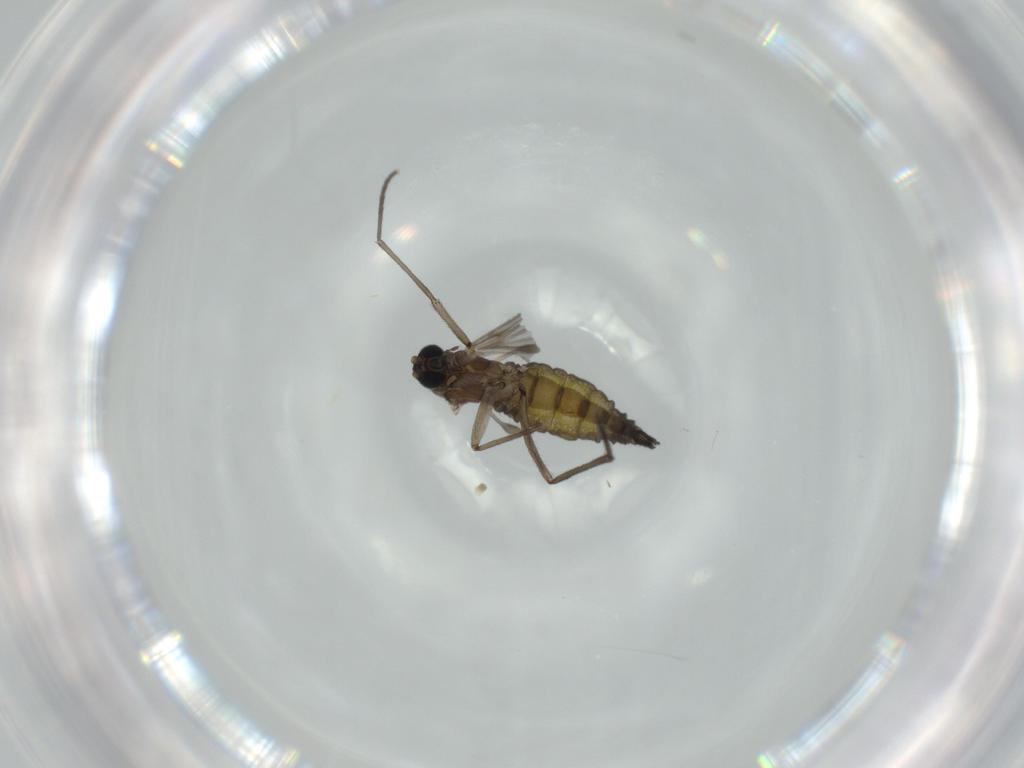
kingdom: Animalia
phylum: Arthropoda
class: Insecta
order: Diptera
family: Sciaridae
